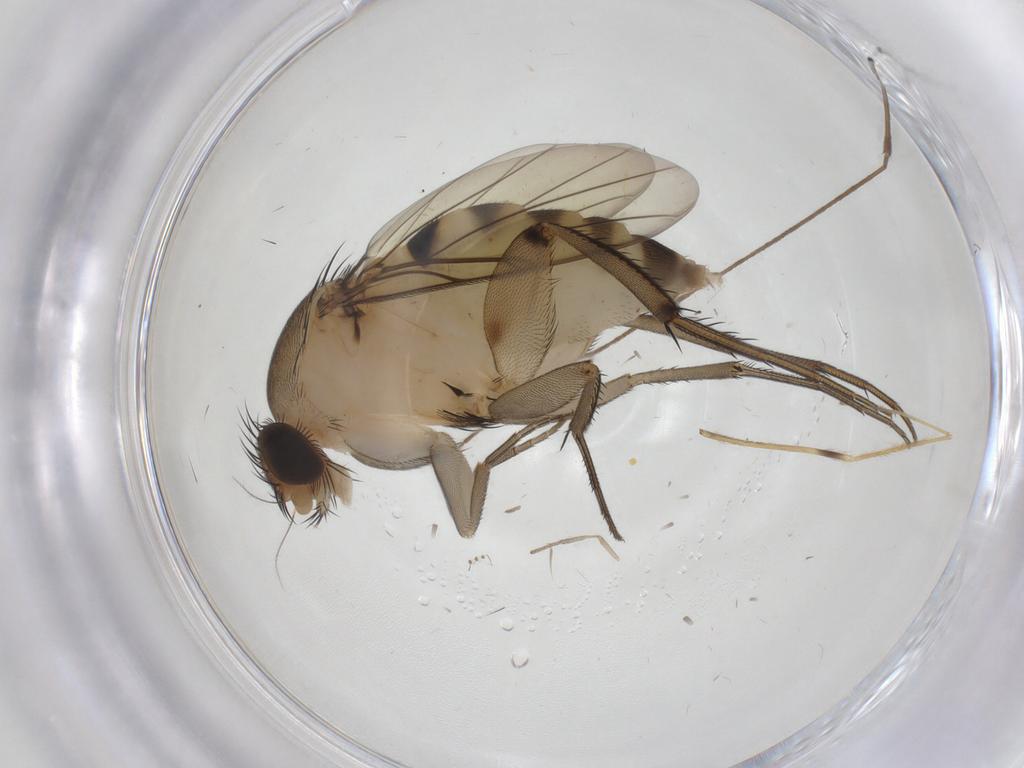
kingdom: Animalia
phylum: Arthropoda
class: Insecta
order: Diptera
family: Phoridae
